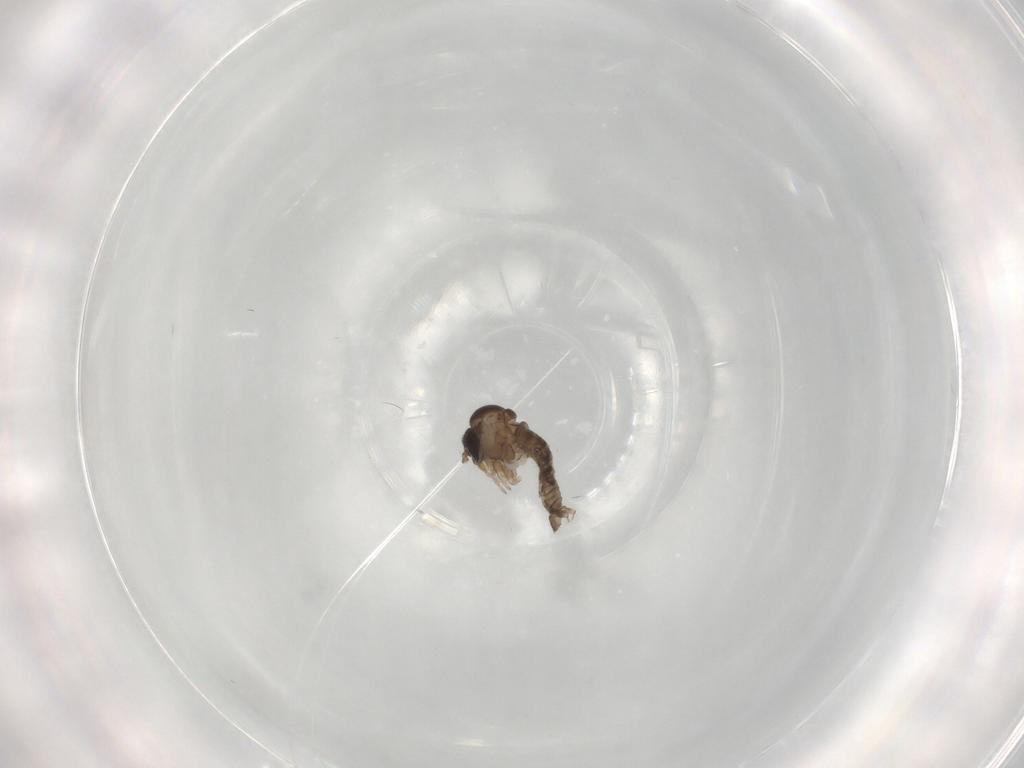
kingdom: Animalia
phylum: Arthropoda
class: Insecta
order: Diptera
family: Psychodidae
